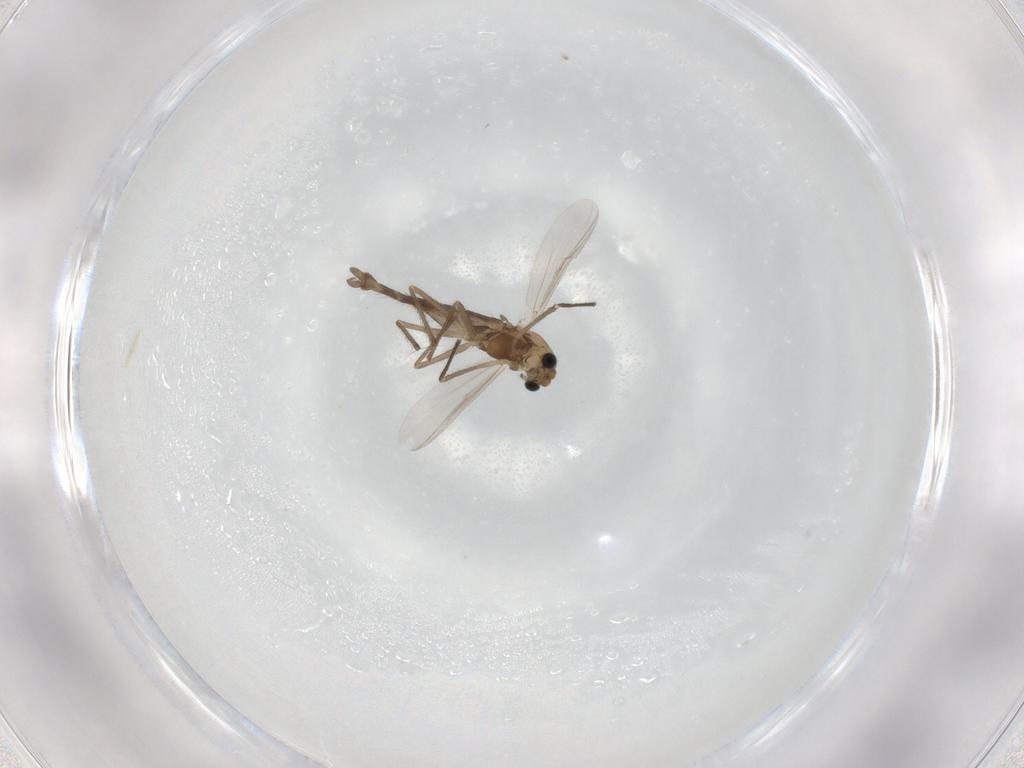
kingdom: Animalia
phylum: Arthropoda
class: Insecta
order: Diptera
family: Chironomidae
